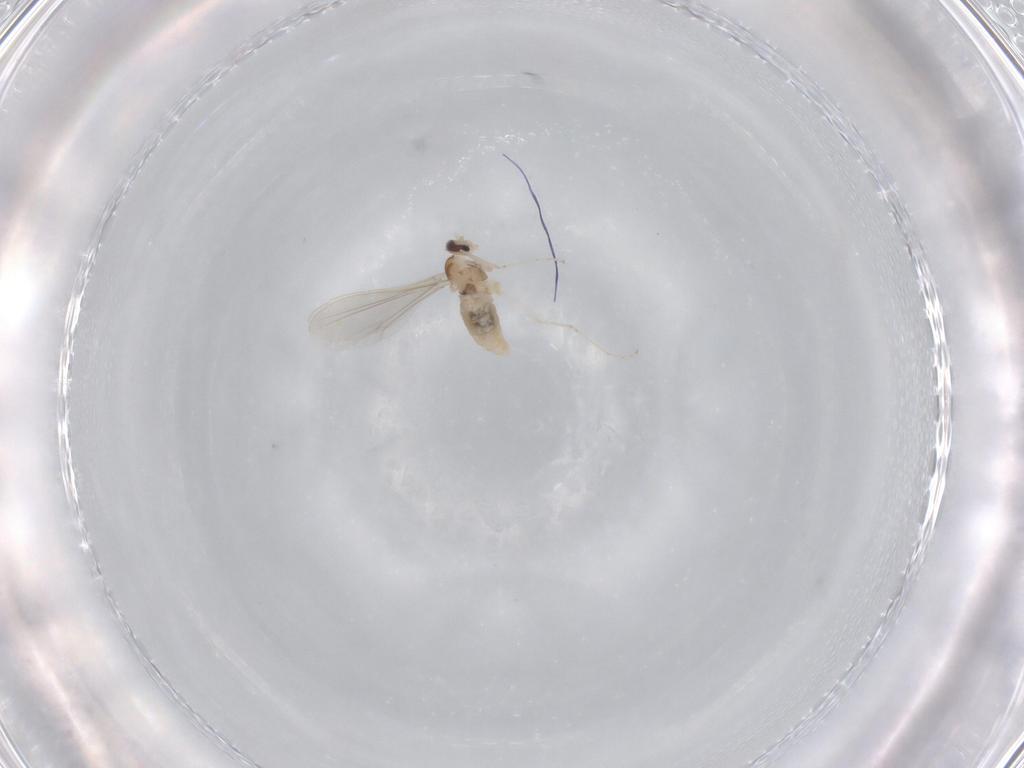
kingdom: Animalia
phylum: Arthropoda
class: Insecta
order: Diptera
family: Cecidomyiidae
